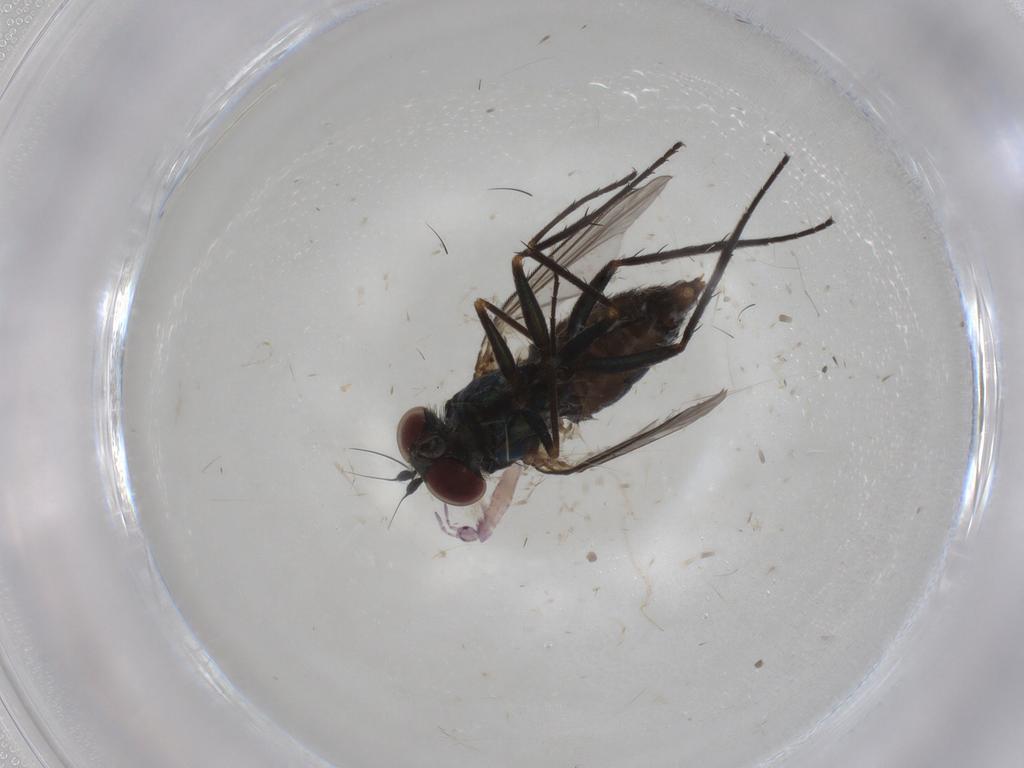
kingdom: Animalia
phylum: Arthropoda
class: Insecta
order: Diptera
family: Dolichopodidae
